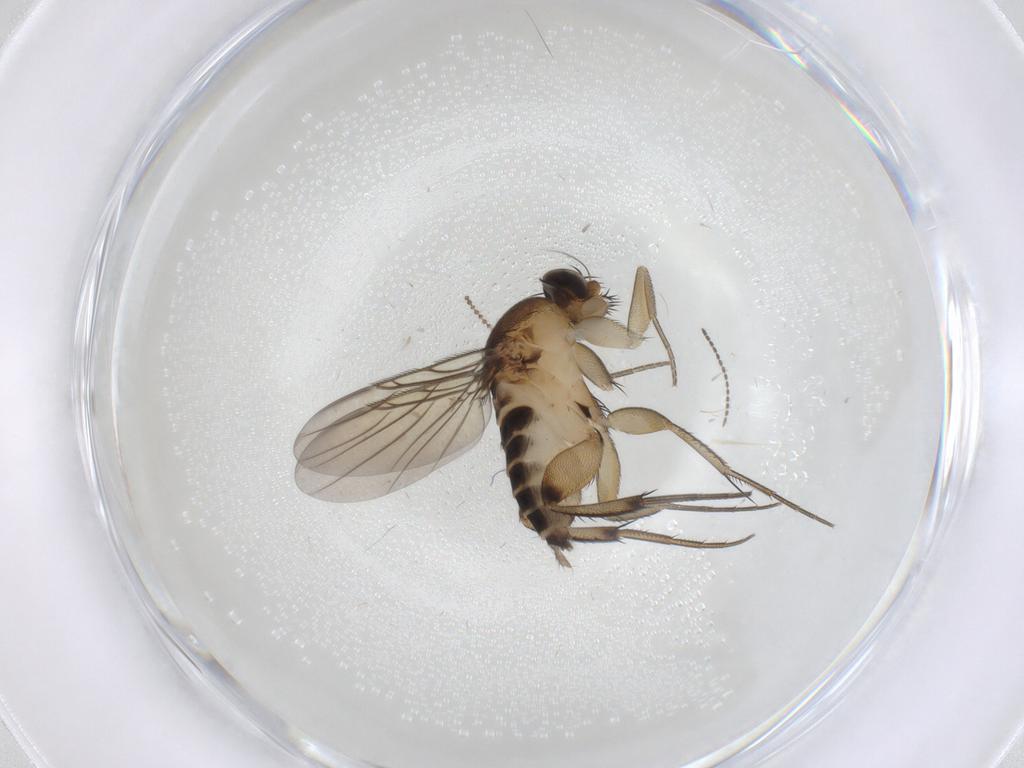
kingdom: Animalia
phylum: Arthropoda
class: Insecta
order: Diptera
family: Phoridae
